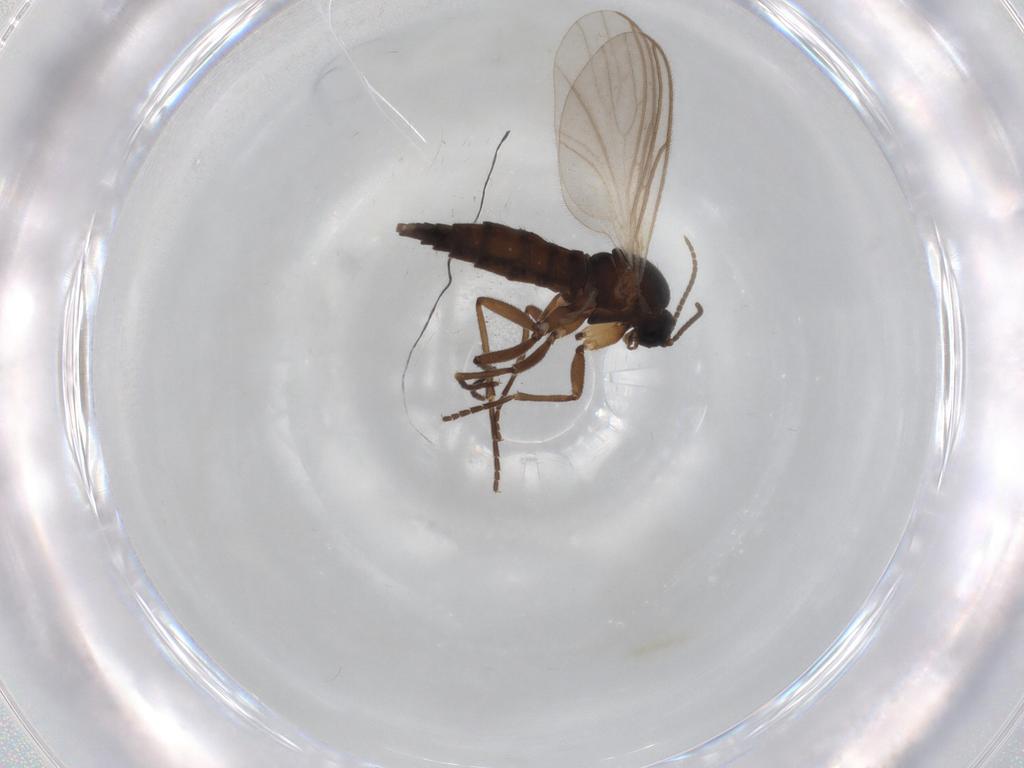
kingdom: Animalia
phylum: Arthropoda
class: Insecta
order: Diptera
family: Sciaridae
